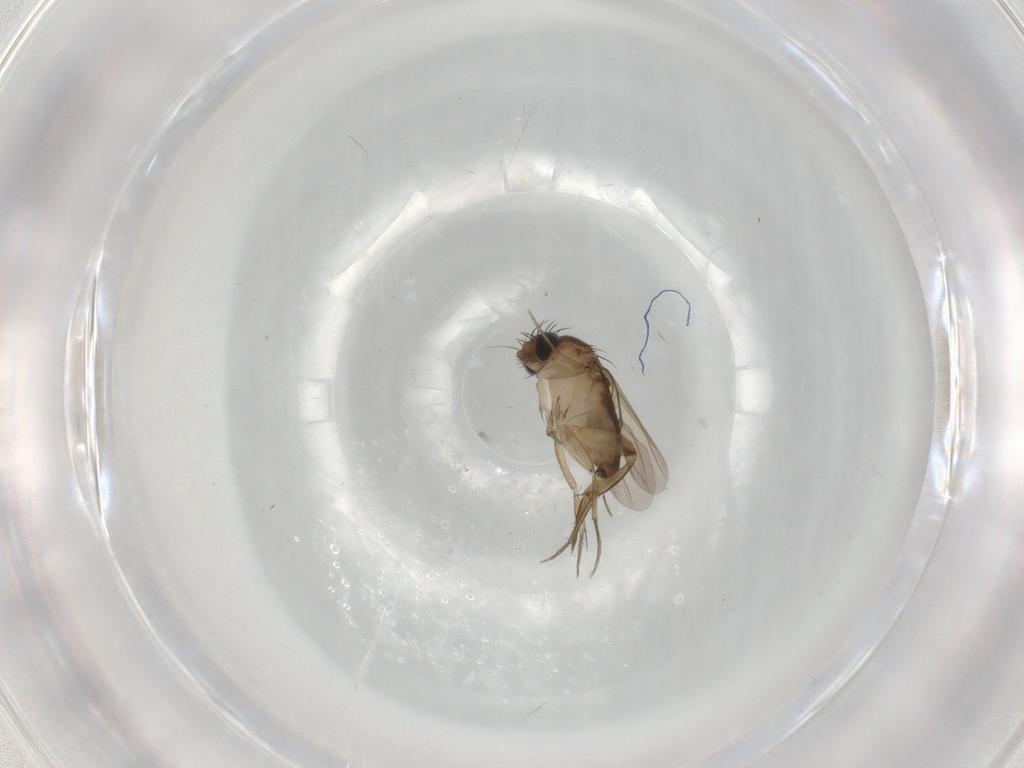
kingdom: Animalia
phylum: Arthropoda
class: Insecta
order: Diptera
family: Phoridae
